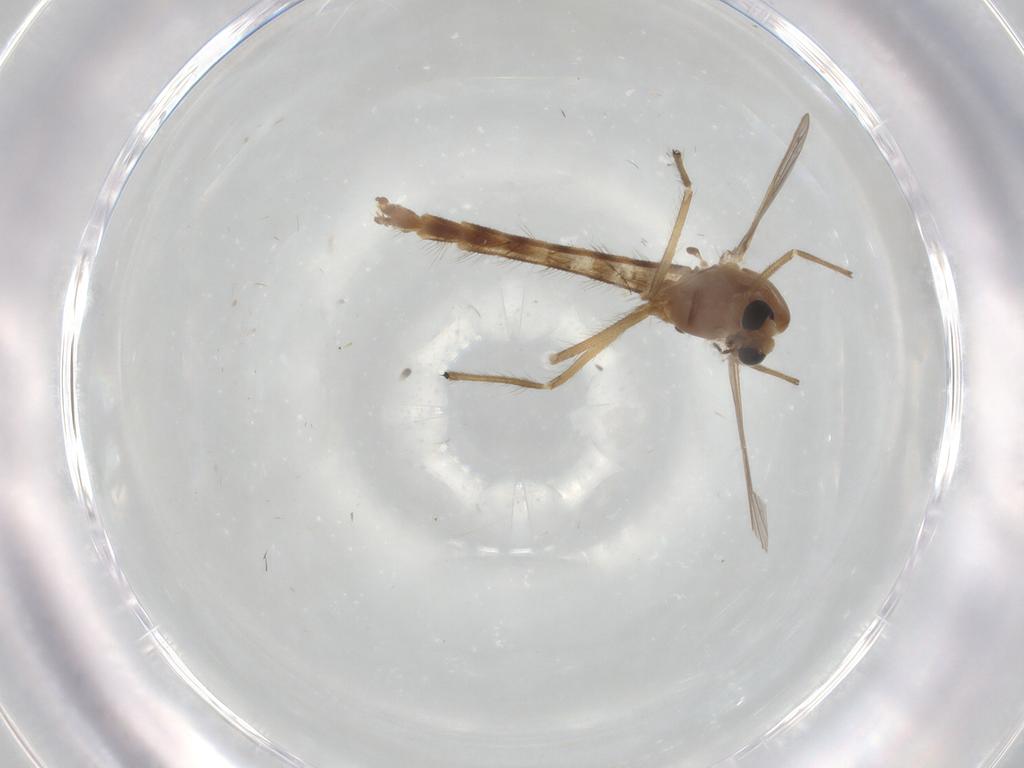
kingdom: Animalia
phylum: Arthropoda
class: Insecta
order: Diptera
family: Chironomidae
